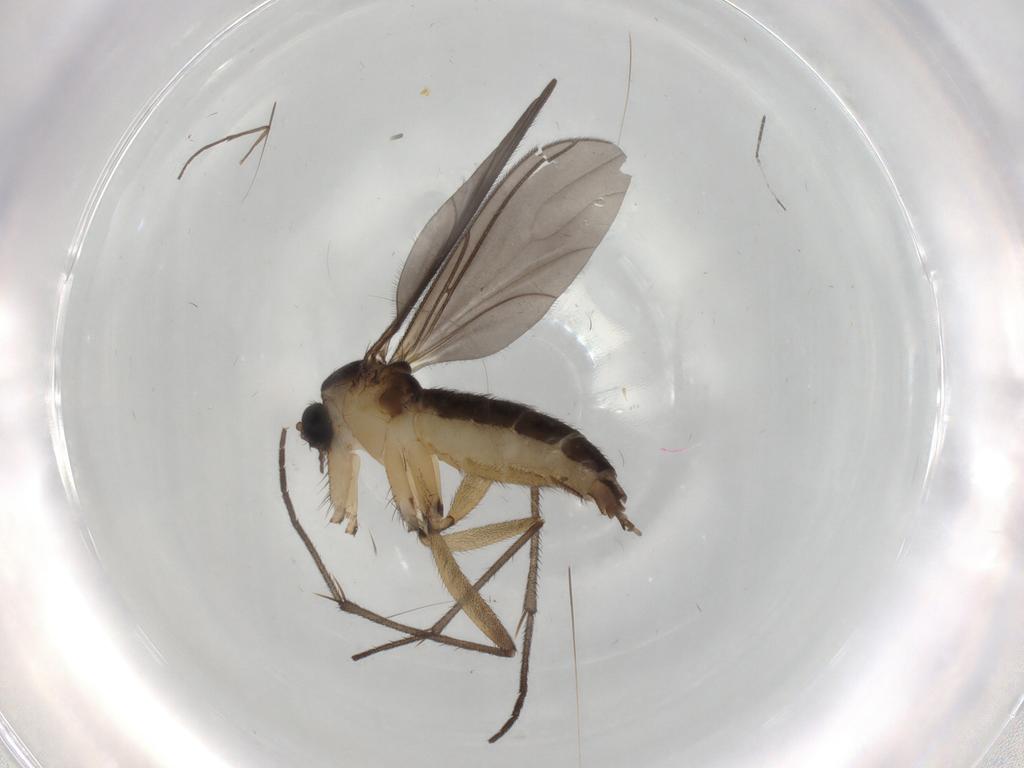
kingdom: Animalia
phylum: Arthropoda
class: Insecta
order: Diptera
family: Sciaridae
